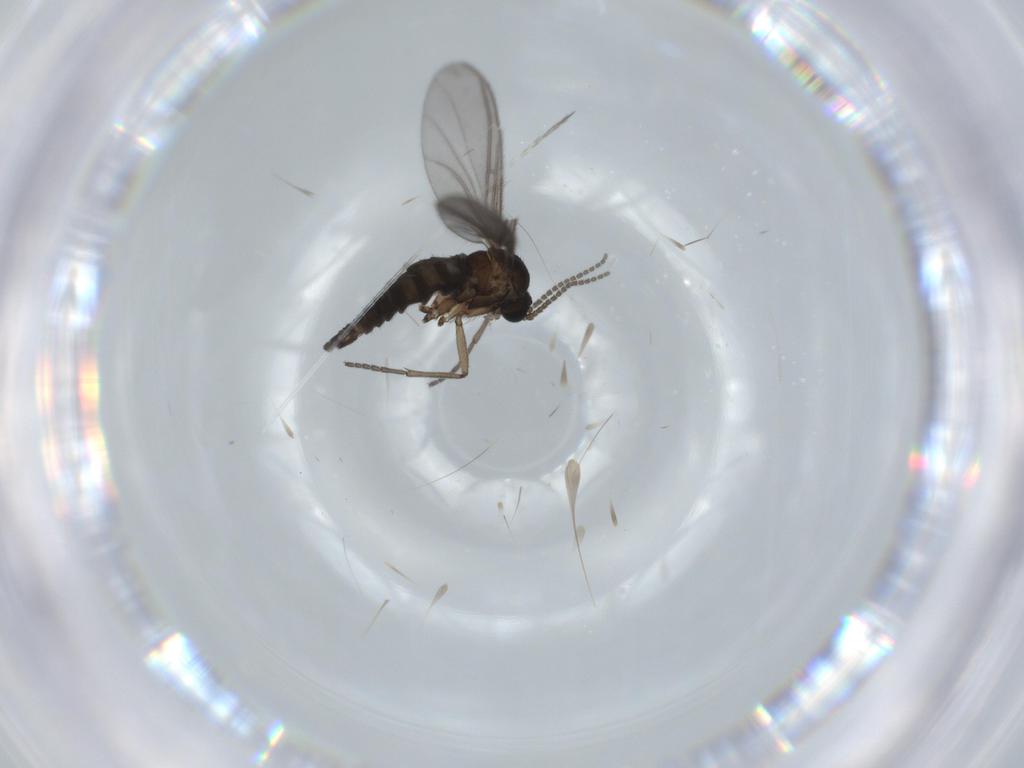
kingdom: Animalia
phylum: Arthropoda
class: Insecta
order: Diptera
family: Sciaridae
